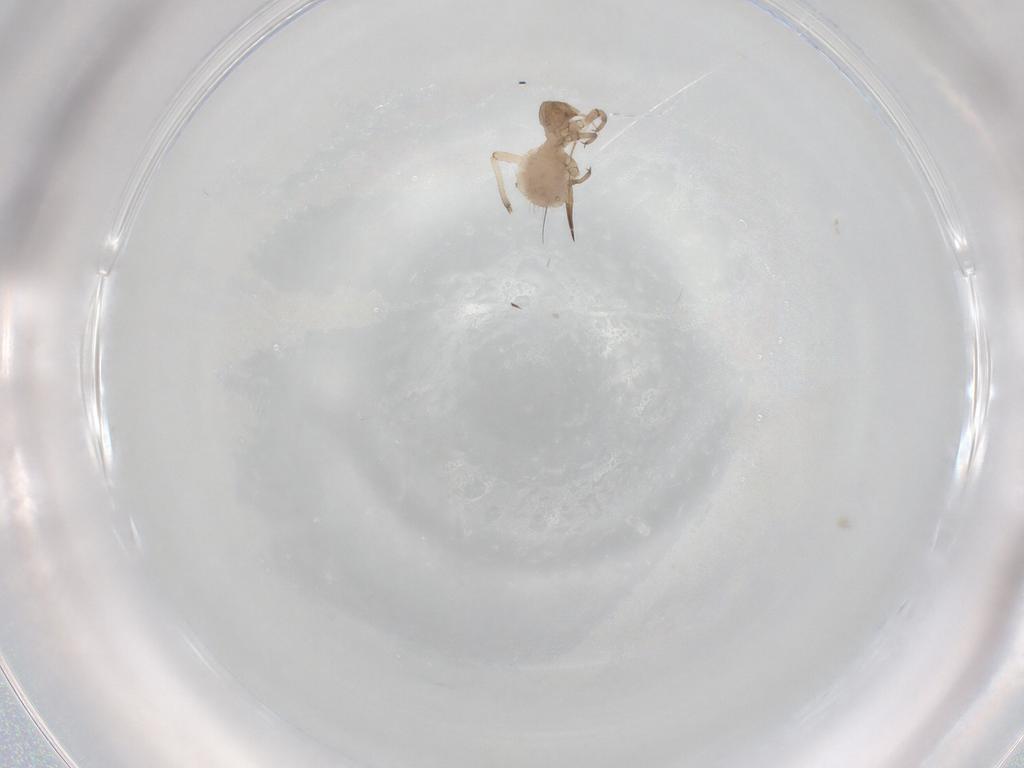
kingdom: Animalia
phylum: Arthropoda
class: Insecta
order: Hemiptera
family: Aphididae
